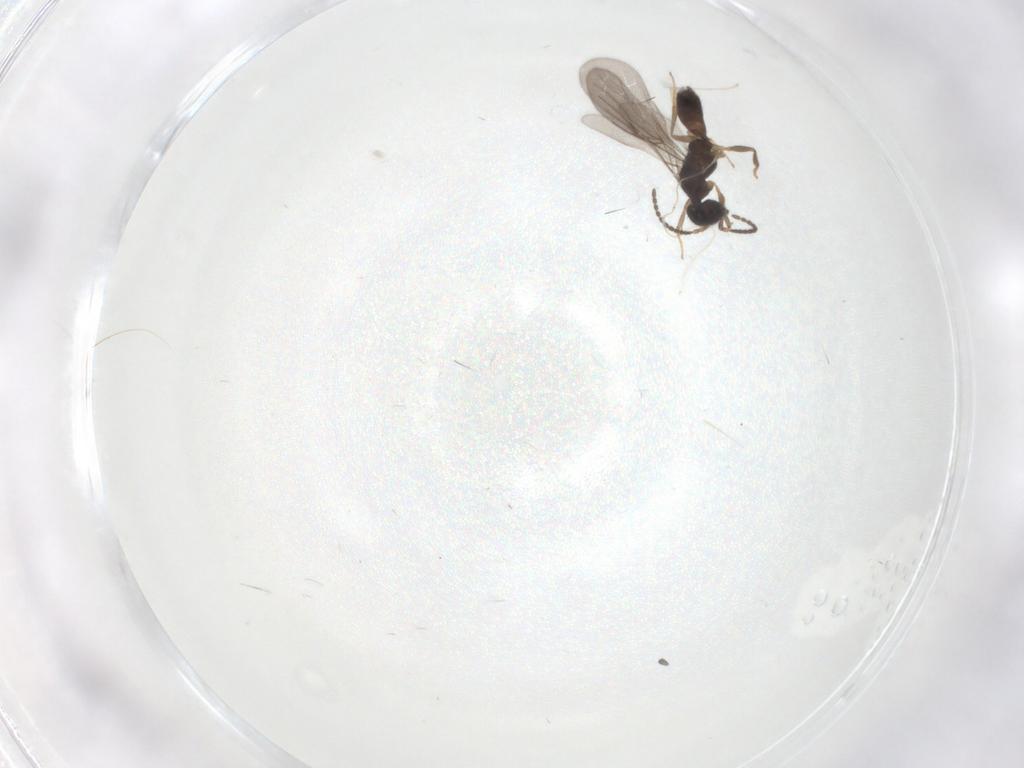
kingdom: Animalia
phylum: Arthropoda
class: Insecta
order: Hymenoptera
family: Bethylidae
